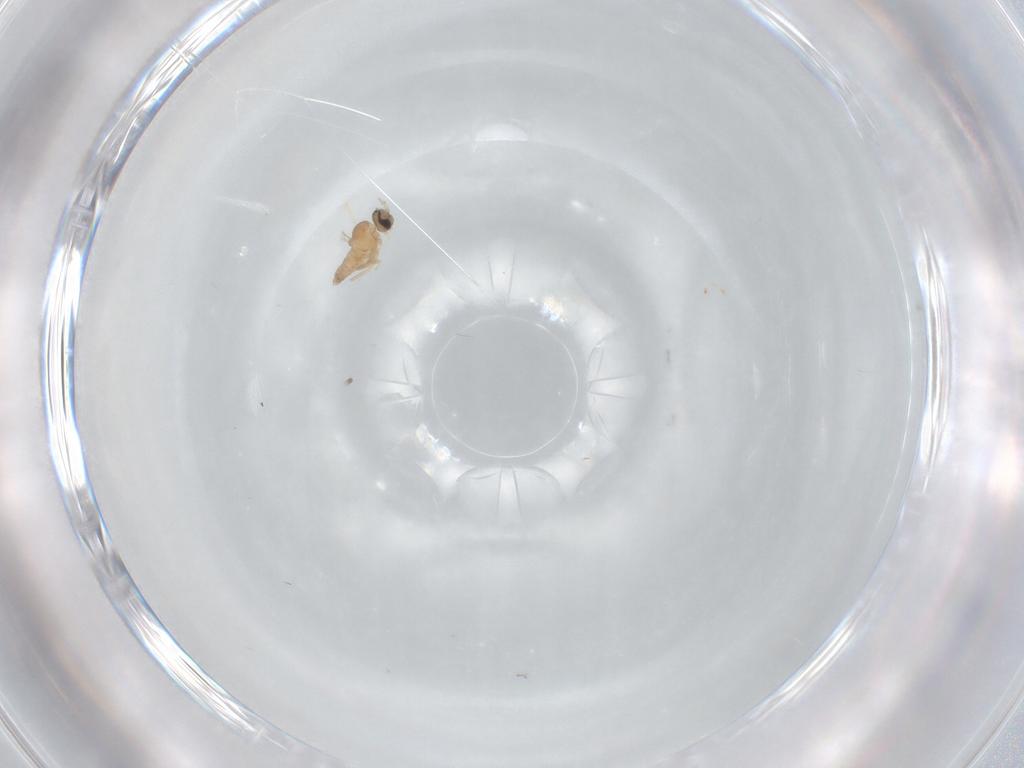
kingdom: Animalia
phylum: Arthropoda
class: Insecta
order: Diptera
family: Cecidomyiidae
